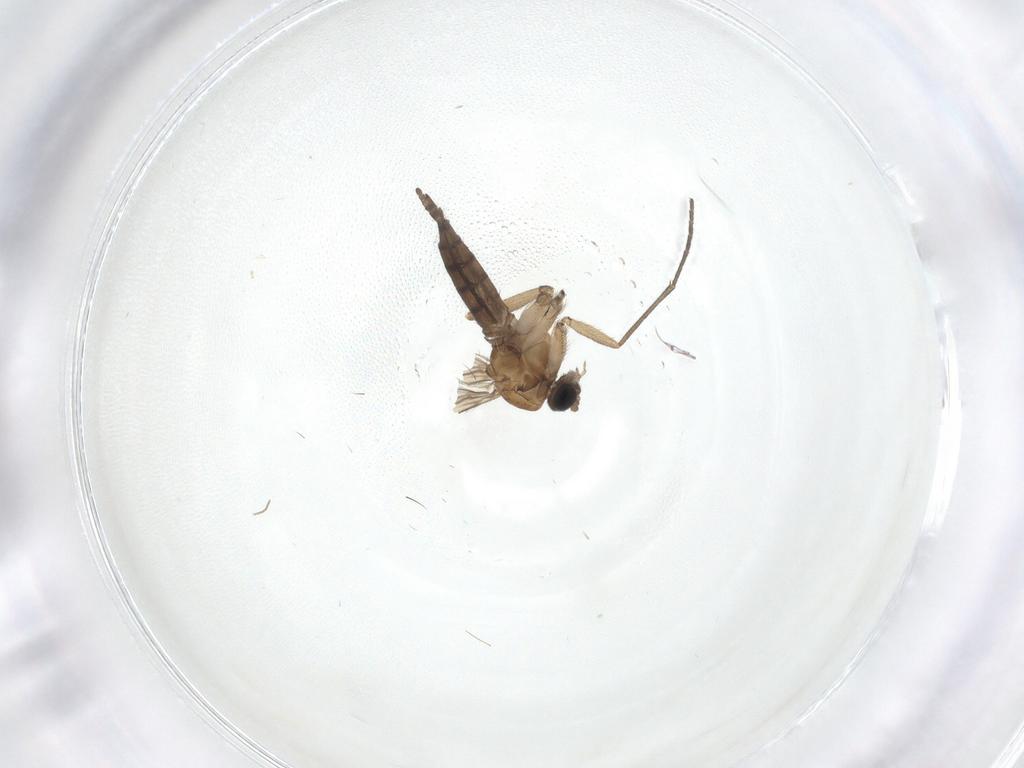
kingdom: Animalia
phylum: Arthropoda
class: Insecta
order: Diptera
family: Sciaridae
